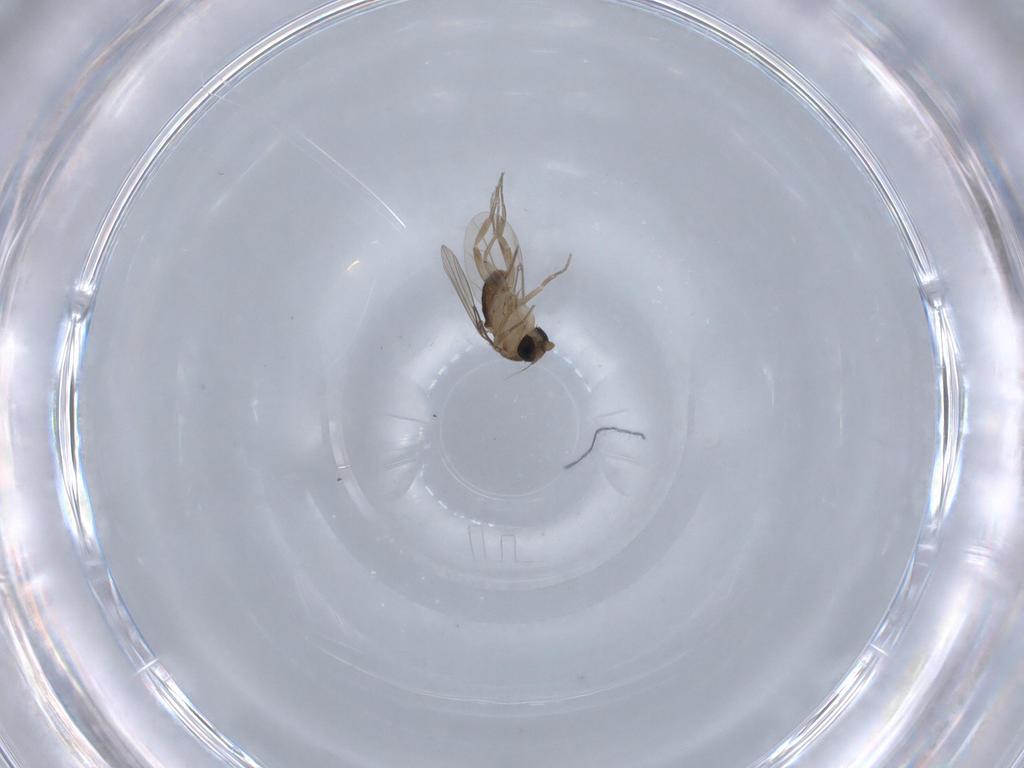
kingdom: Animalia
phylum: Arthropoda
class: Insecta
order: Diptera
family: Phoridae
